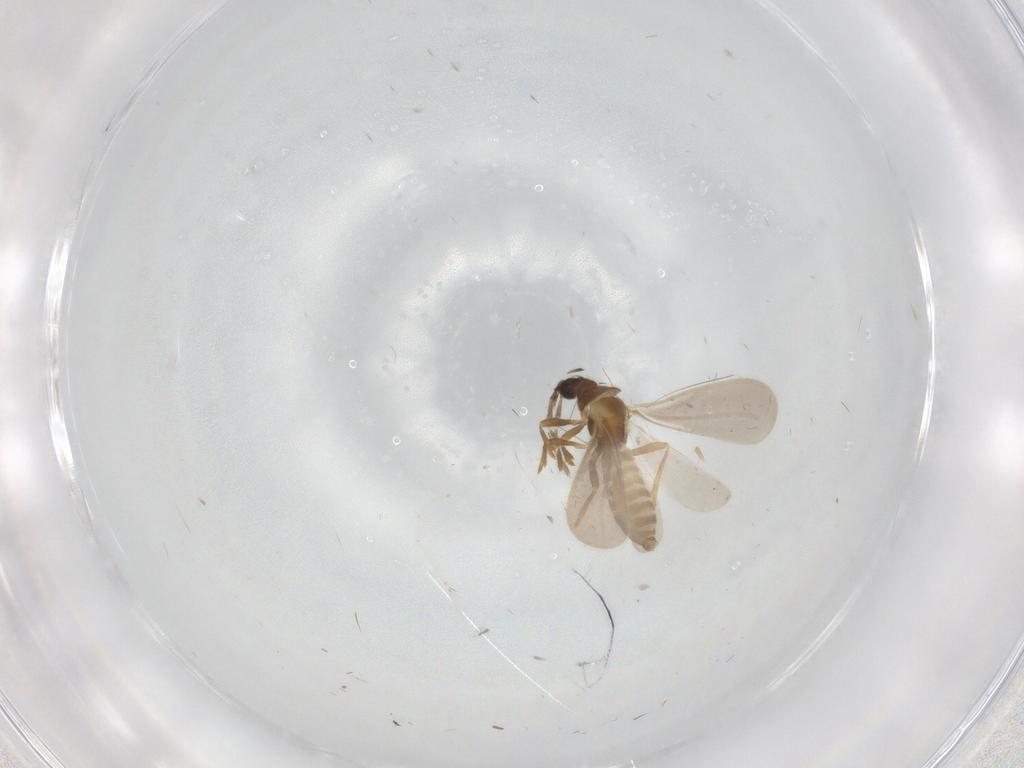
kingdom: Animalia
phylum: Arthropoda
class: Insecta
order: Hemiptera
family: Enicocephalidae
